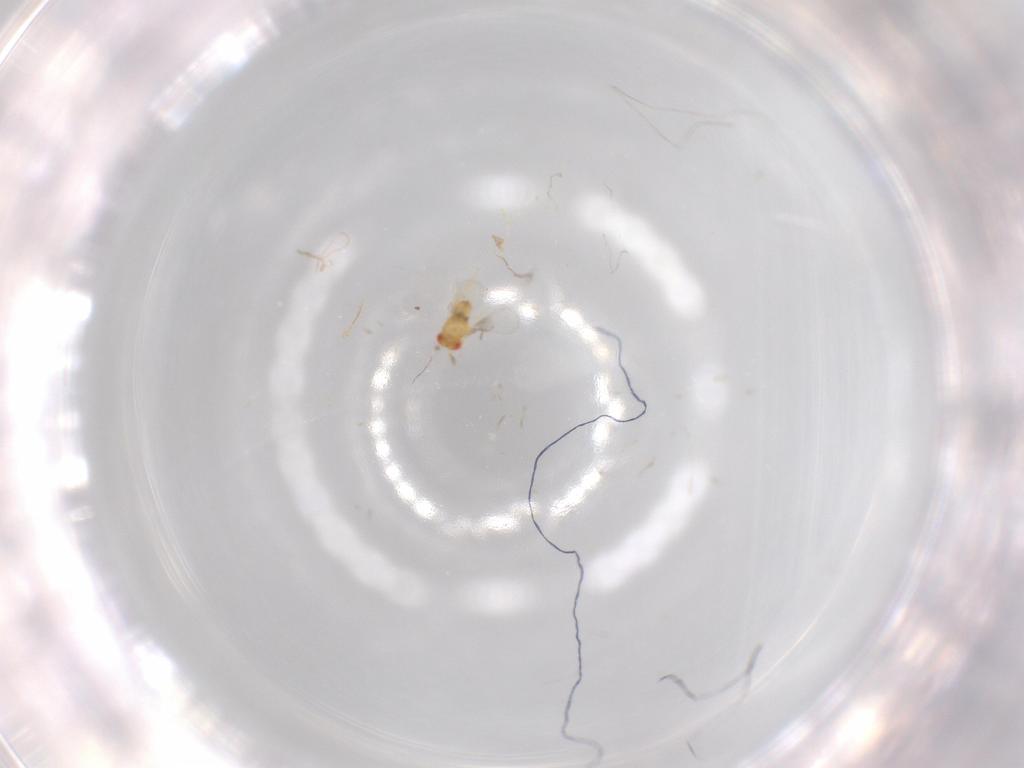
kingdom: Animalia
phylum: Arthropoda
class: Insecta
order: Hymenoptera
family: Trichogrammatidae
